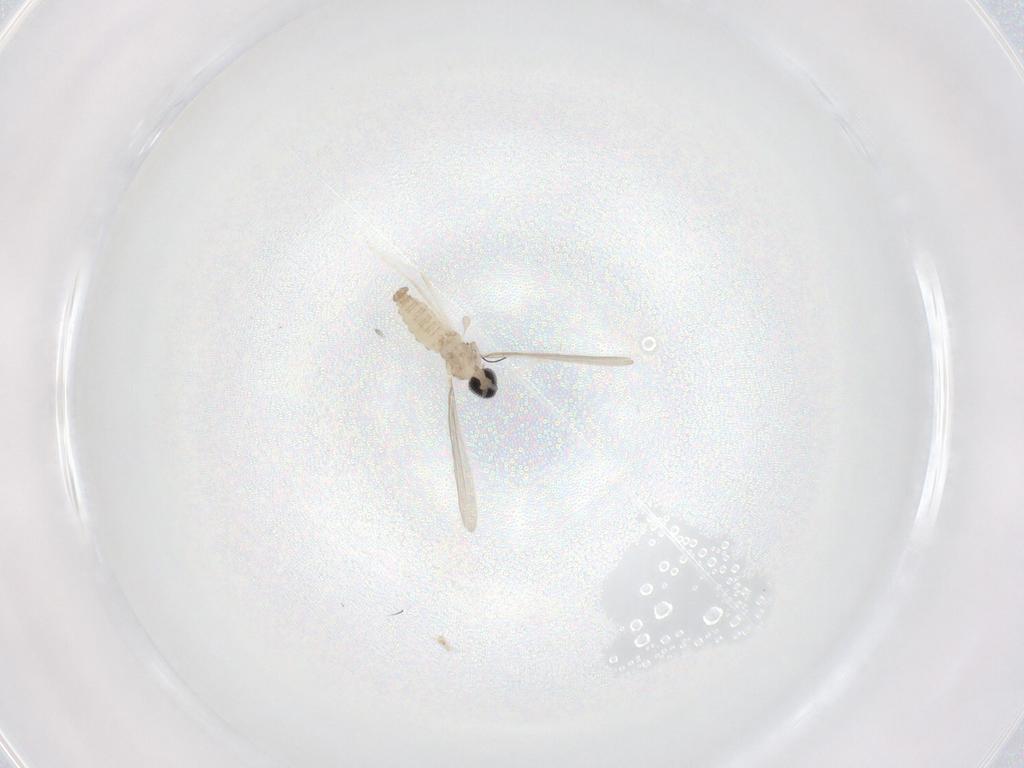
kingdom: Animalia
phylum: Arthropoda
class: Insecta
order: Diptera
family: Cecidomyiidae
